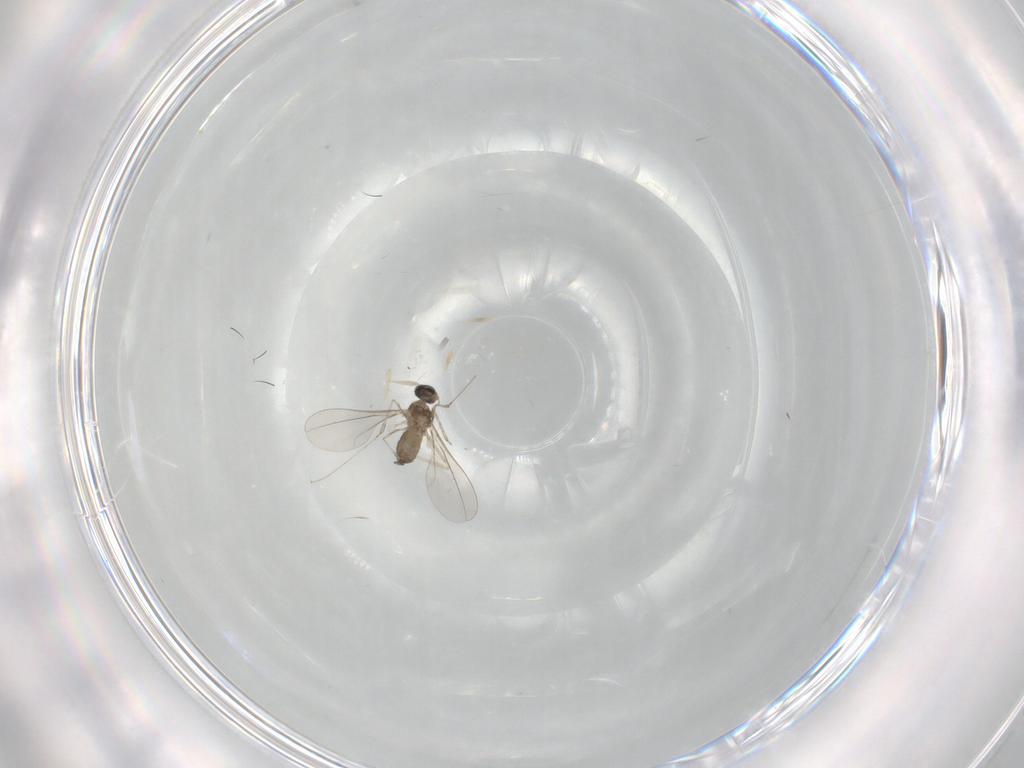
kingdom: Animalia
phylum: Arthropoda
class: Insecta
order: Diptera
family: Cecidomyiidae
